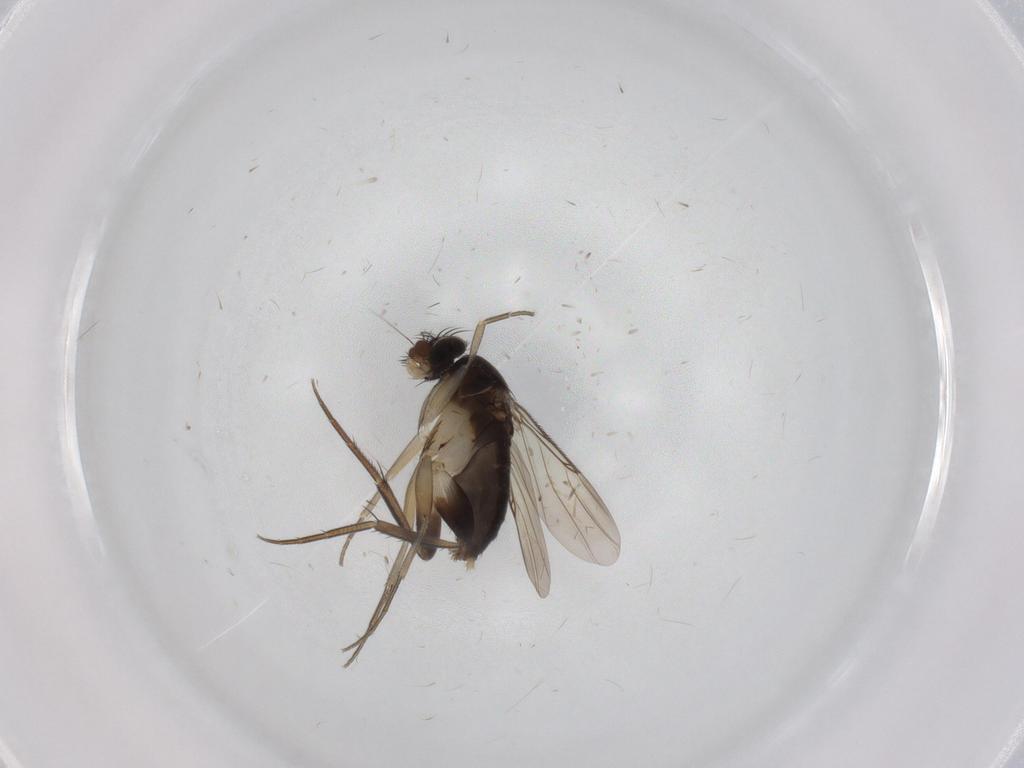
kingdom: Animalia
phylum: Arthropoda
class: Insecta
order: Diptera
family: Phoridae
